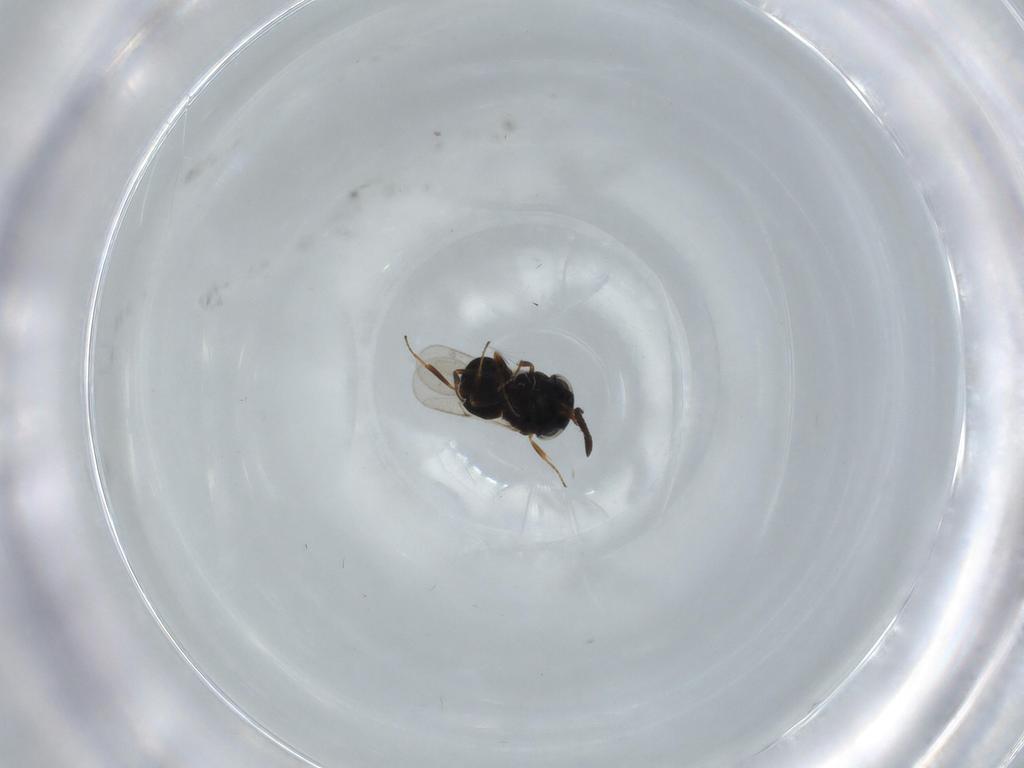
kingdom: Animalia
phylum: Arthropoda
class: Insecta
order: Hymenoptera
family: Scelionidae
